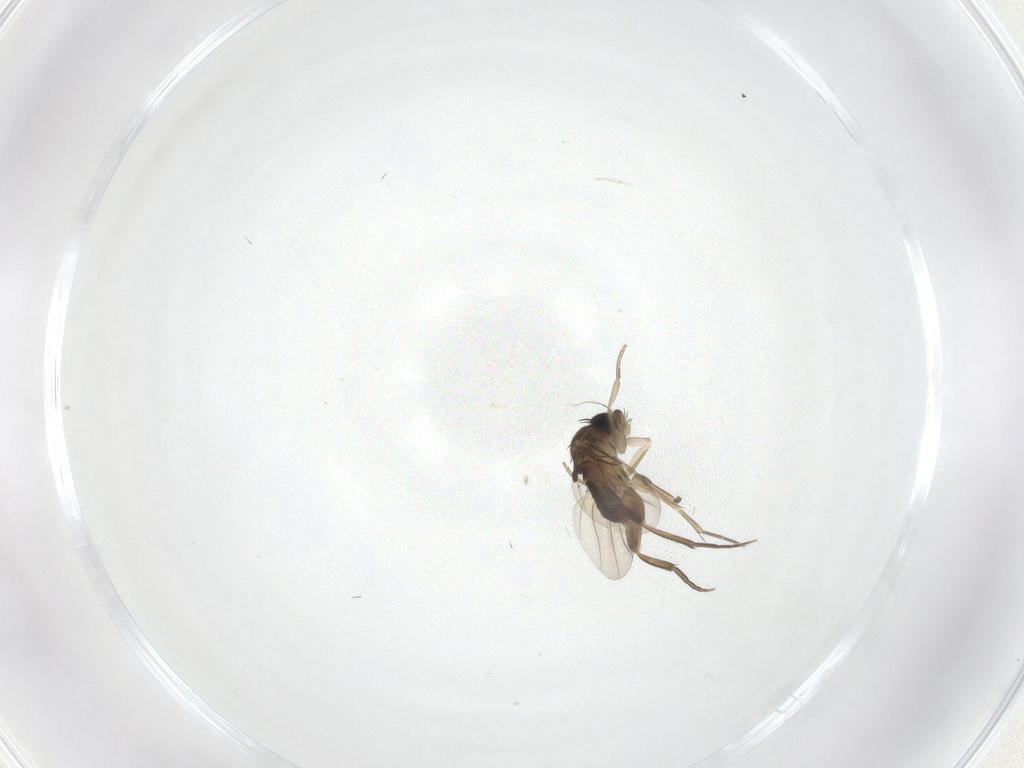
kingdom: Animalia
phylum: Arthropoda
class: Insecta
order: Diptera
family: Phoridae
